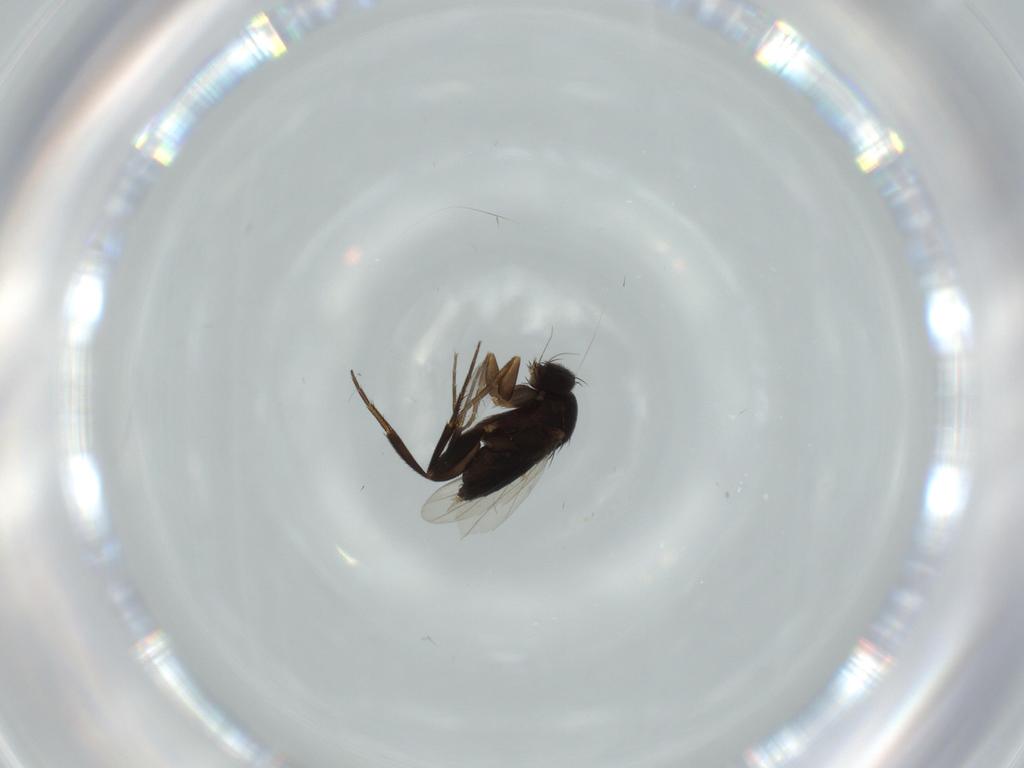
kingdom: Animalia
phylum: Arthropoda
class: Insecta
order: Diptera
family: Phoridae
